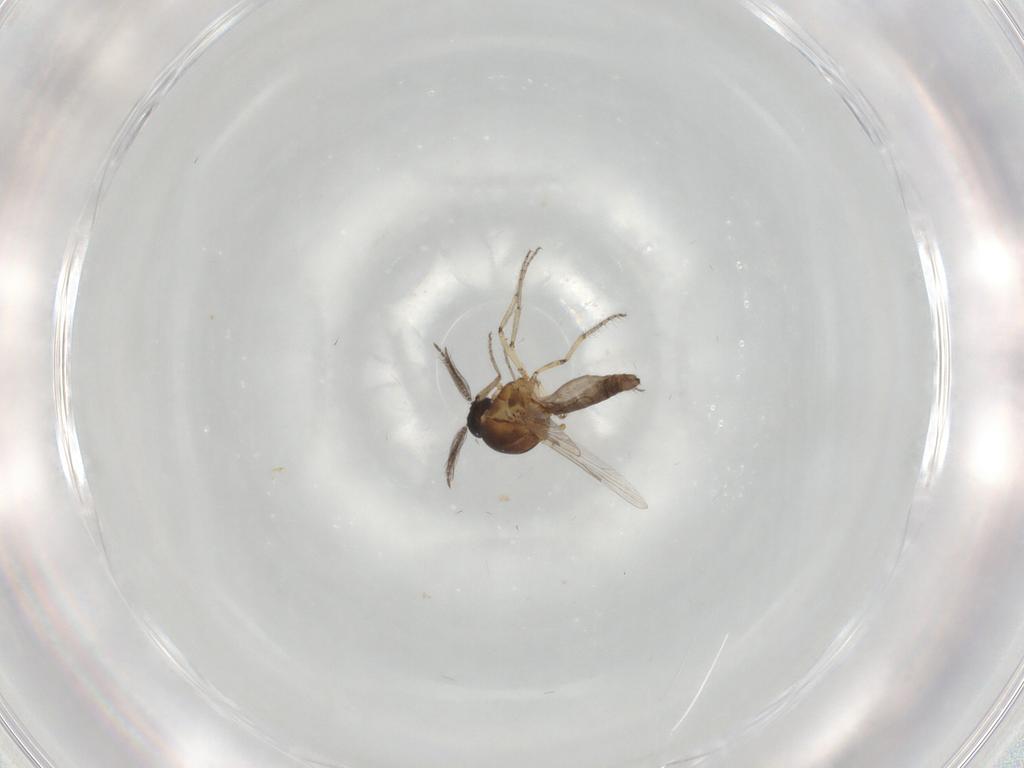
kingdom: Animalia
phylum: Arthropoda
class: Insecta
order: Diptera
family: Ceratopogonidae
